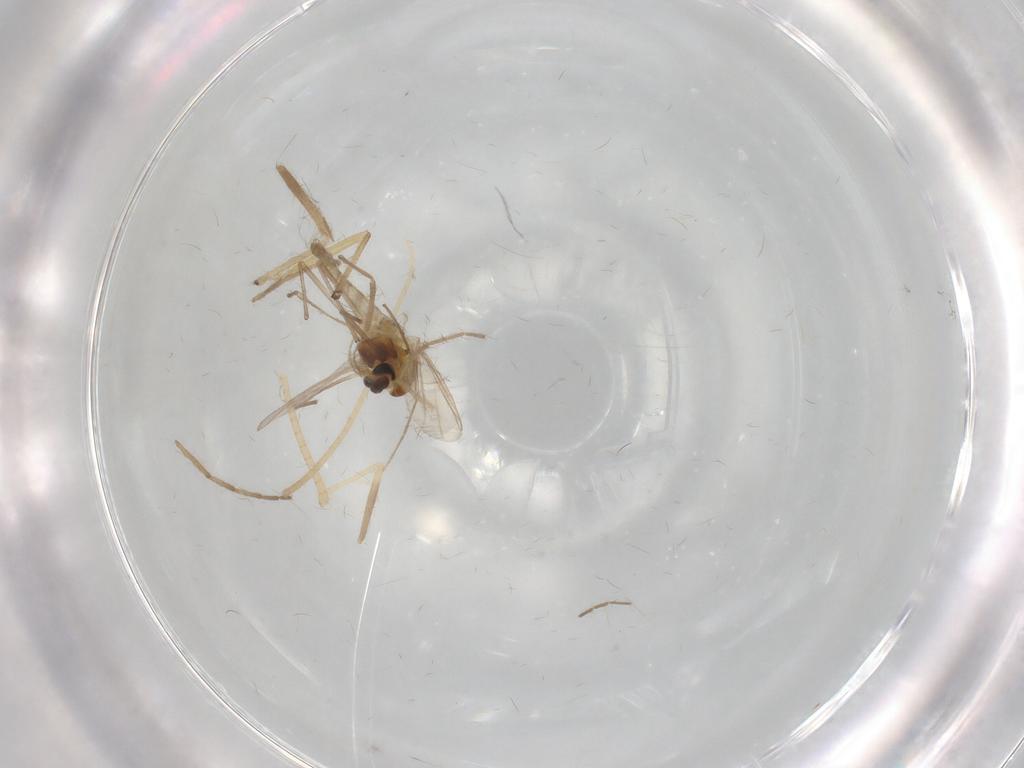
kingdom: Animalia
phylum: Arthropoda
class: Insecta
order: Diptera
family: Chironomidae
